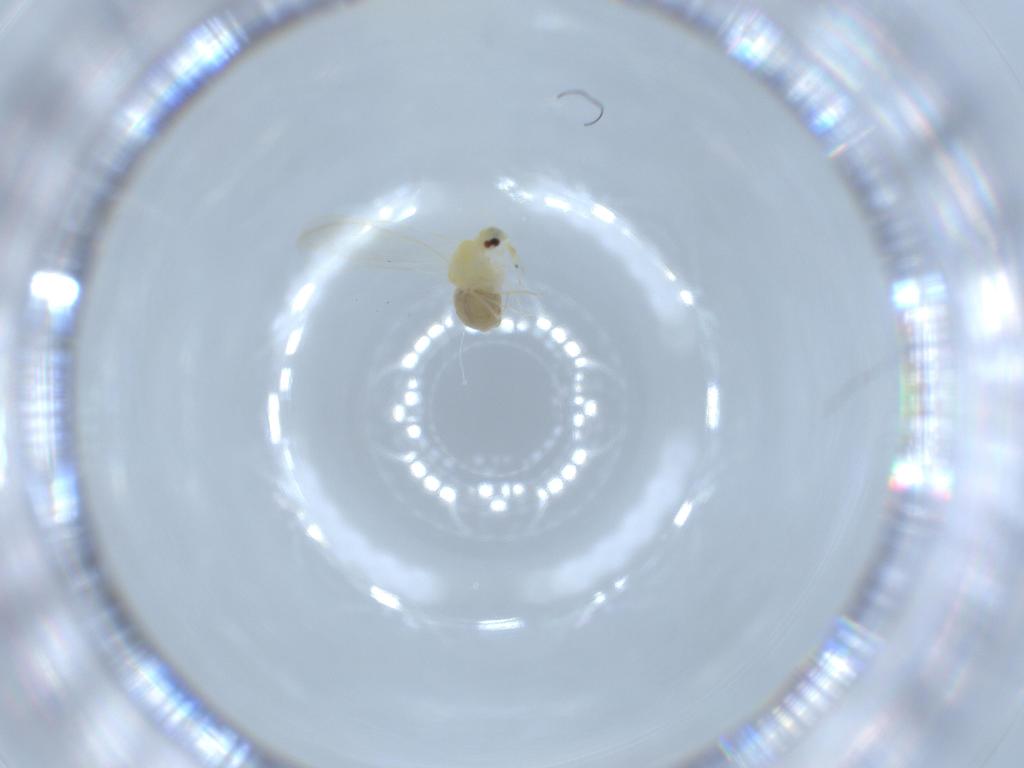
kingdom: Animalia
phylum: Arthropoda
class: Insecta
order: Hemiptera
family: Aleyrodidae
